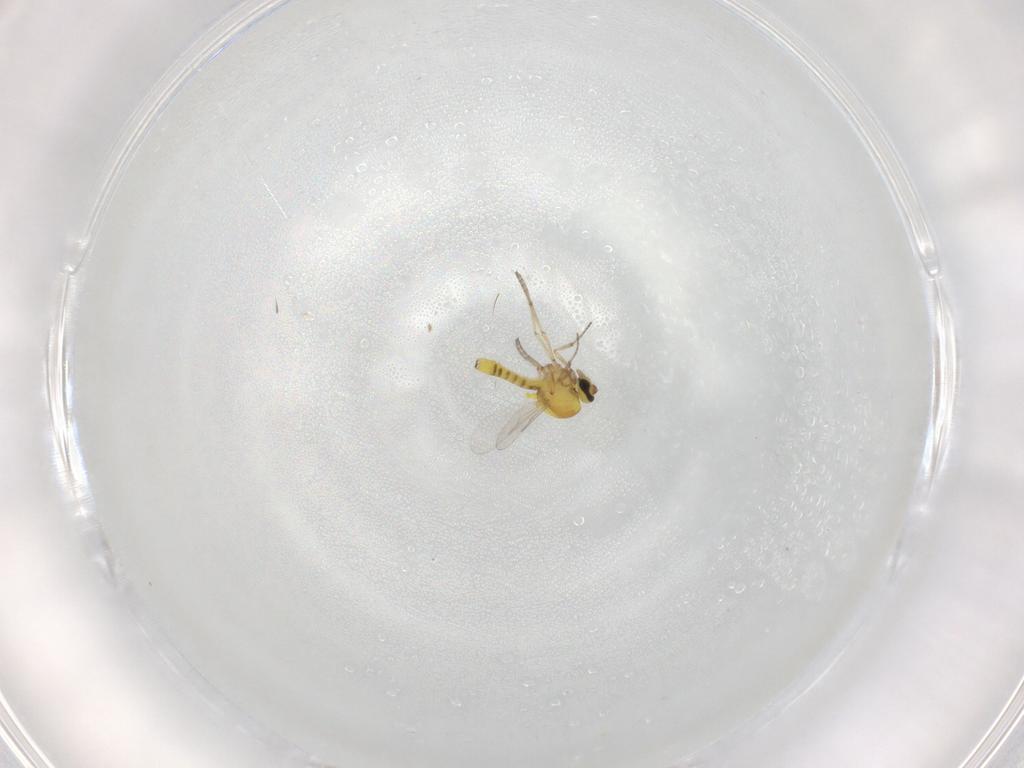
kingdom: Animalia
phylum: Arthropoda
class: Insecta
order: Diptera
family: Ceratopogonidae
